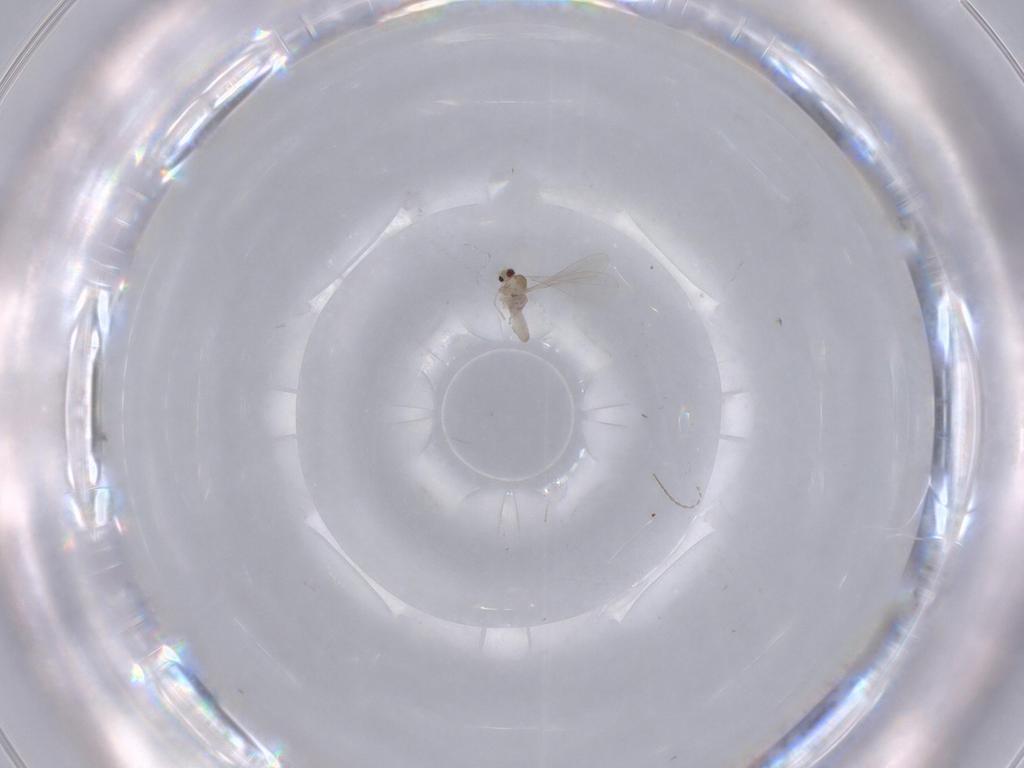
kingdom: Animalia
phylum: Arthropoda
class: Insecta
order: Diptera
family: Cecidomyiidae
